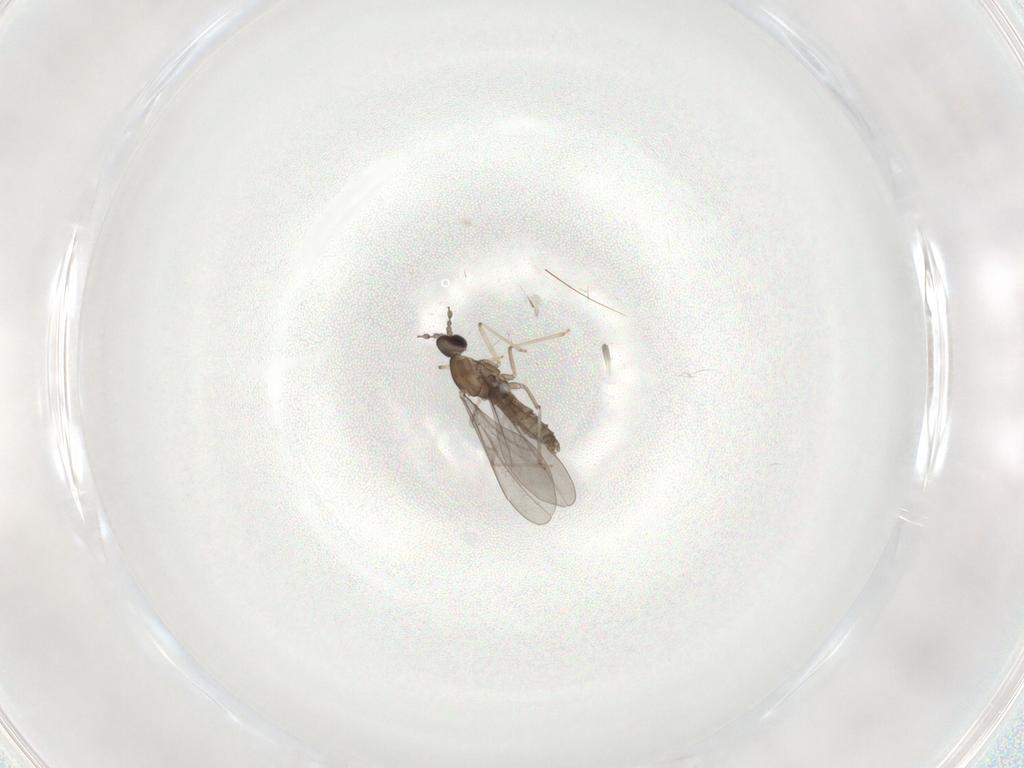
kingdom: Animalia
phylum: Arthropoda
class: Insecta
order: Diptera
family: Cecidomyiidae
